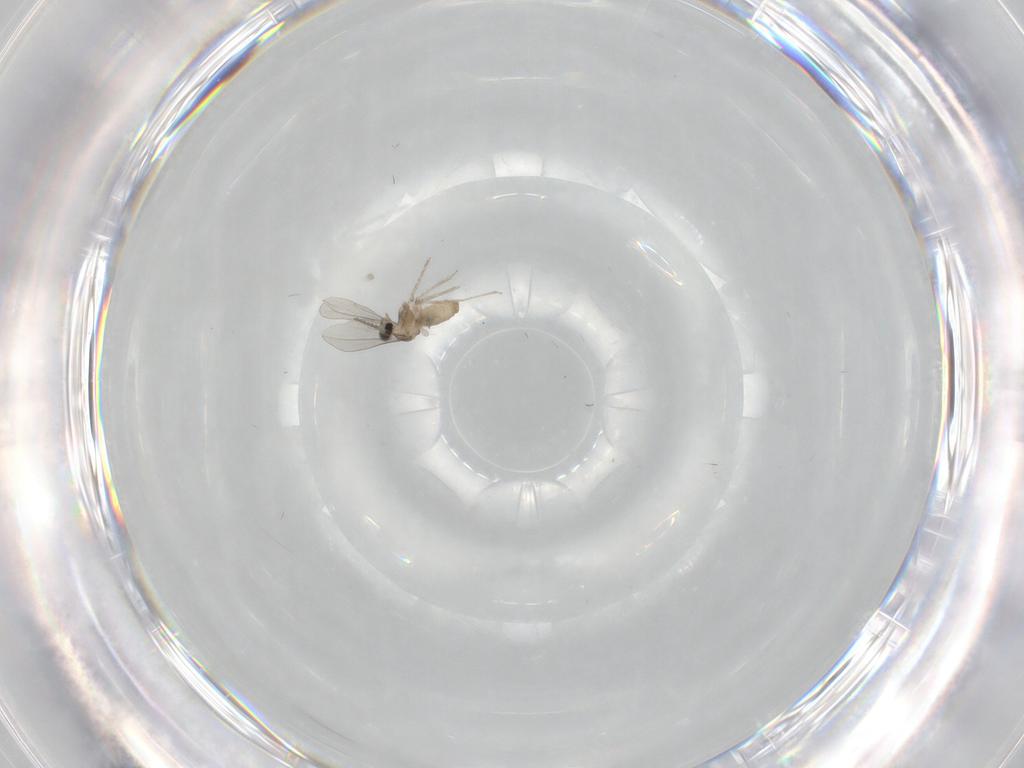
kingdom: Animalia
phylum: Arthropoda
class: Insecta
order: Diptera
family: Cecidomyiidae
